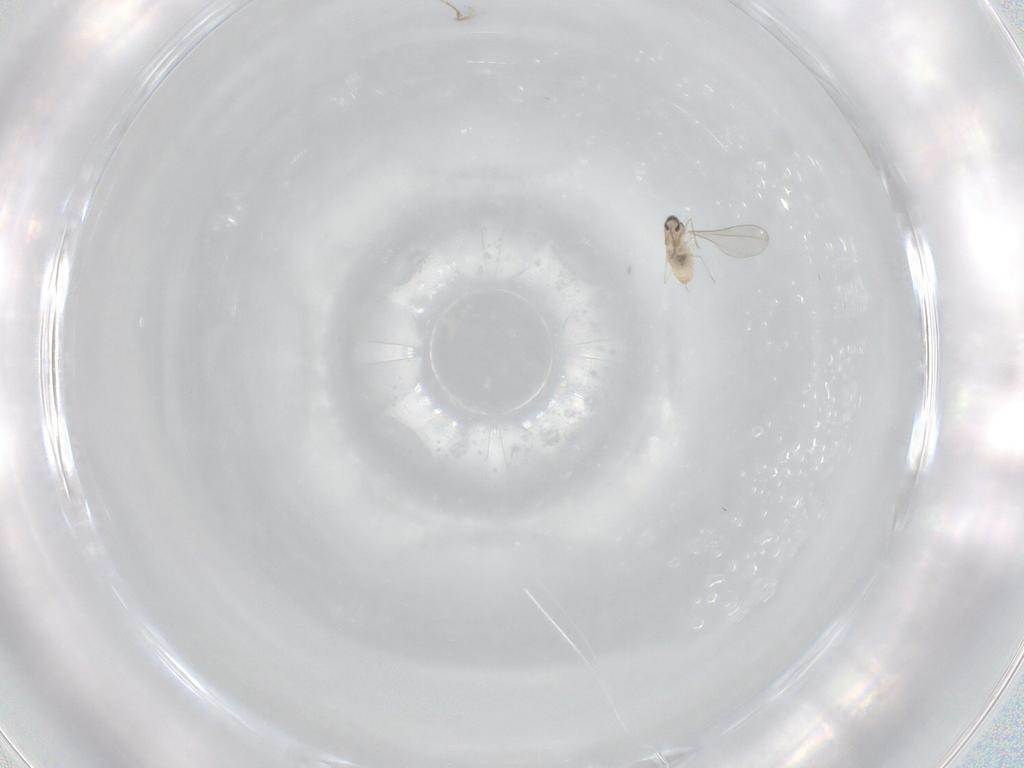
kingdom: Animalia
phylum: Arthropoda
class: Insecta
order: Diptera
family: Cecidomyiidae
